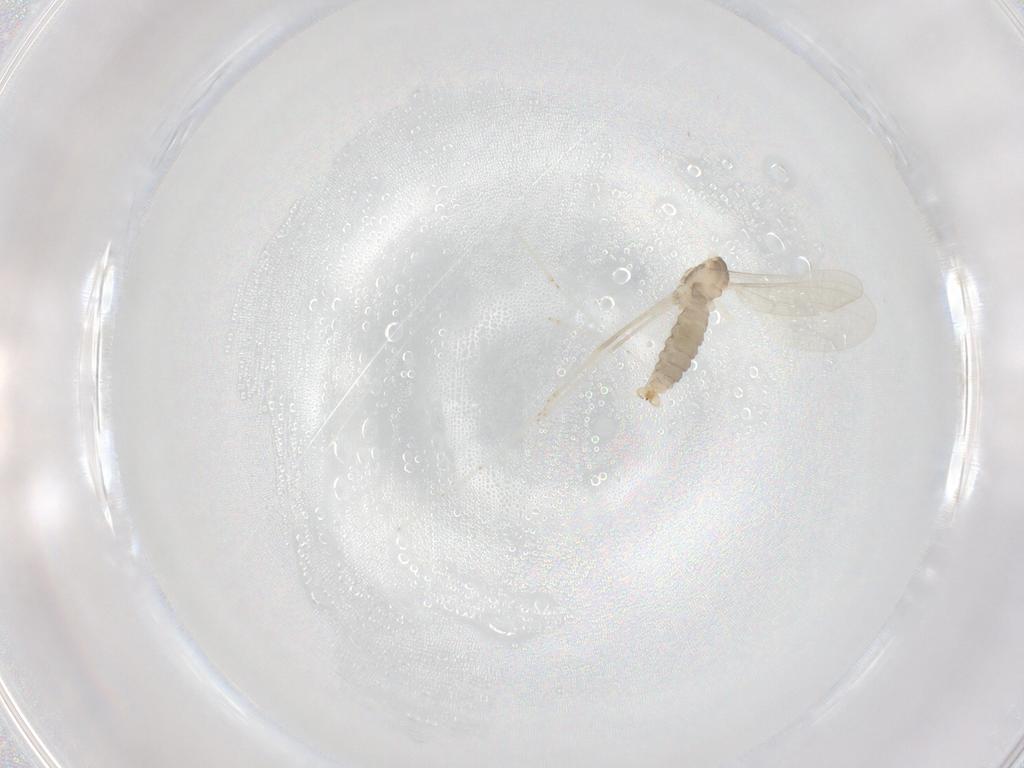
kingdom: Animalia
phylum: Arthropoda
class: Insecta
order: Diptera
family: Cecidomyiidae
